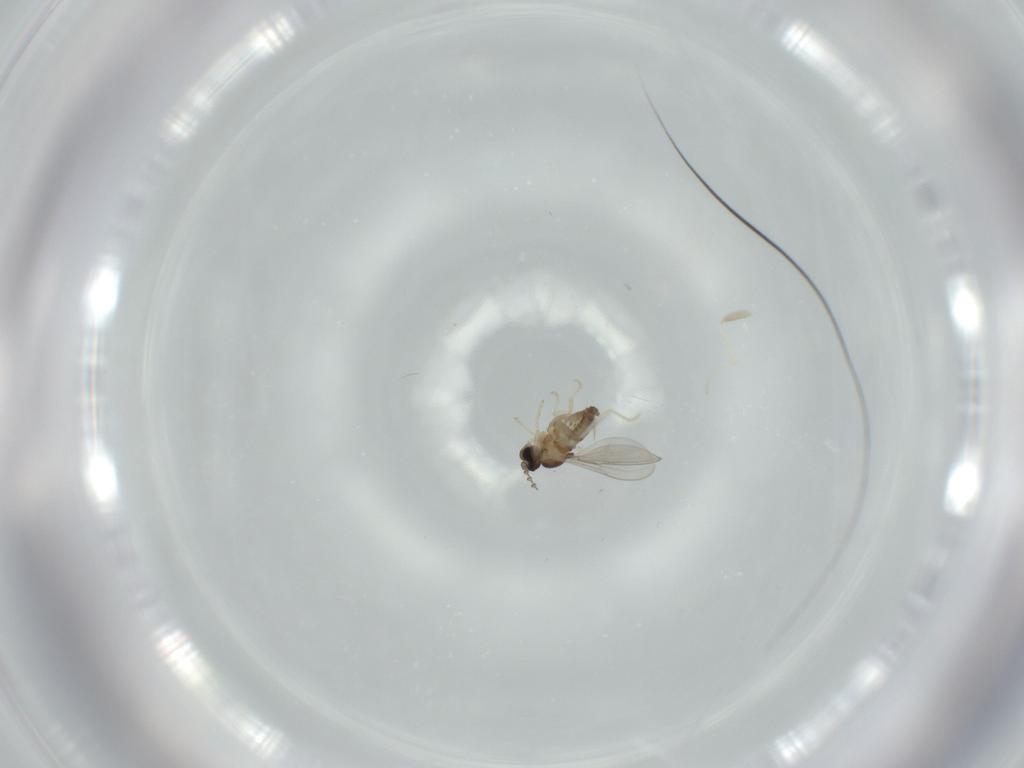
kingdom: Animalia
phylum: Arthropoda
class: Insecta
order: Diptera
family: Cecidomyiidae
